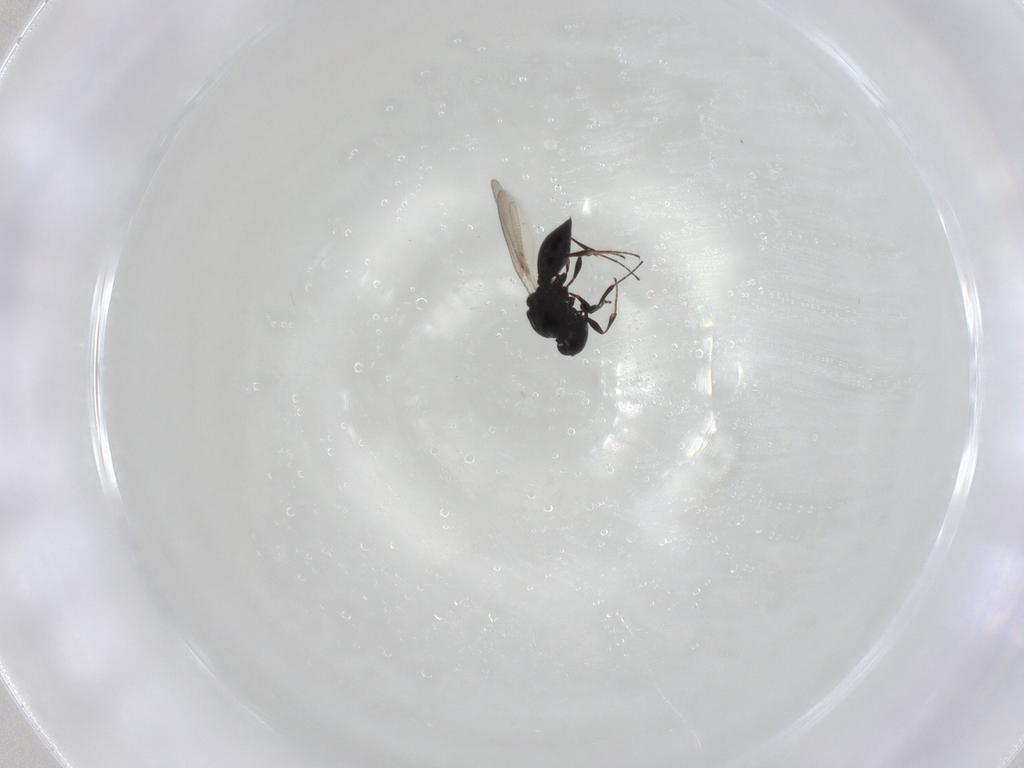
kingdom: Animalia
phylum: Arthropoda
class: Insecta
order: Hymenoptera
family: Platygastridae
